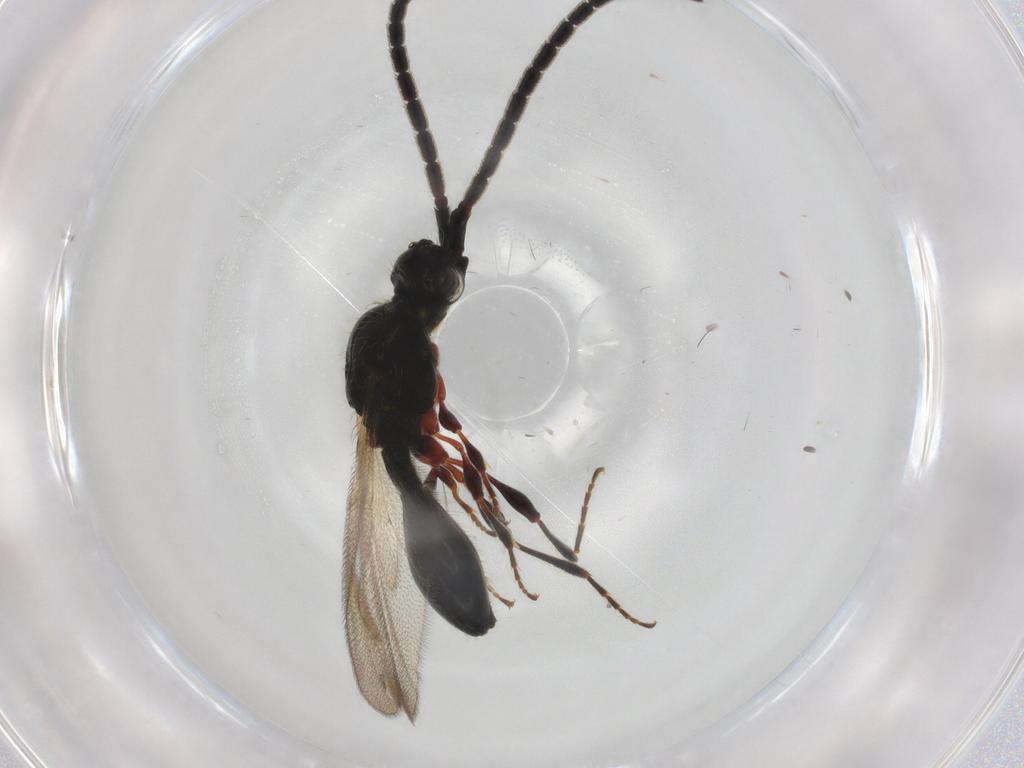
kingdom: Animalia
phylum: Arthropoda
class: Insecta
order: Hymenoptera
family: Diapriidae
